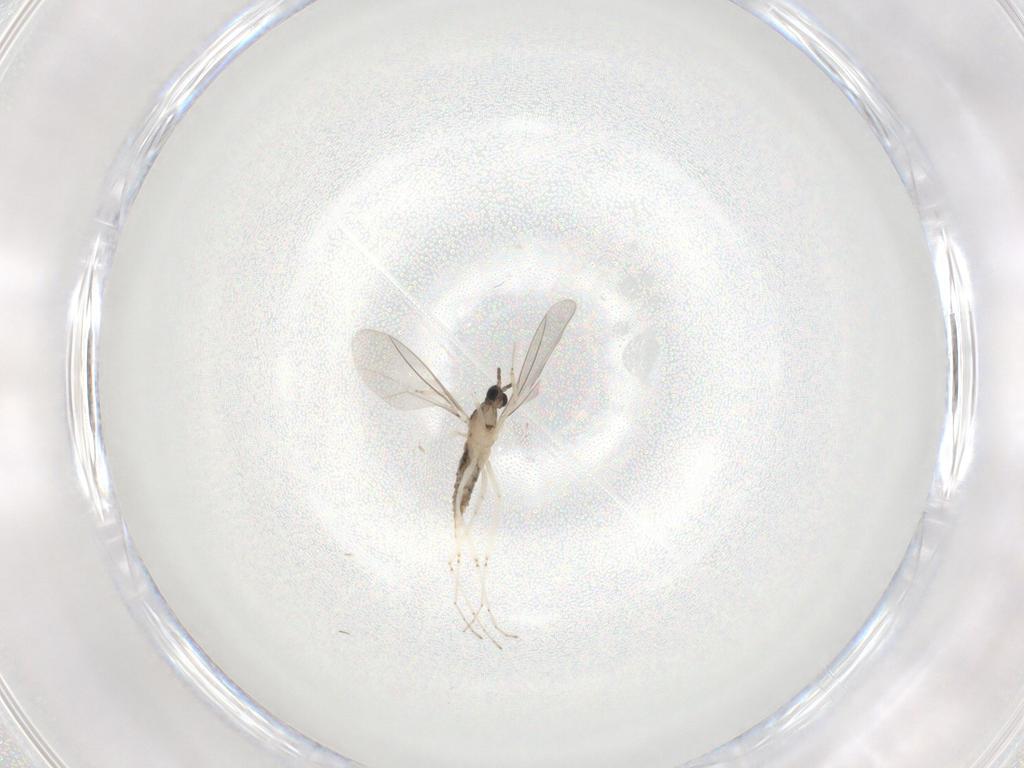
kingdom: Animalia
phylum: Arthropoda
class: Insecta
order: Diptera
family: Cecidomyiidae
